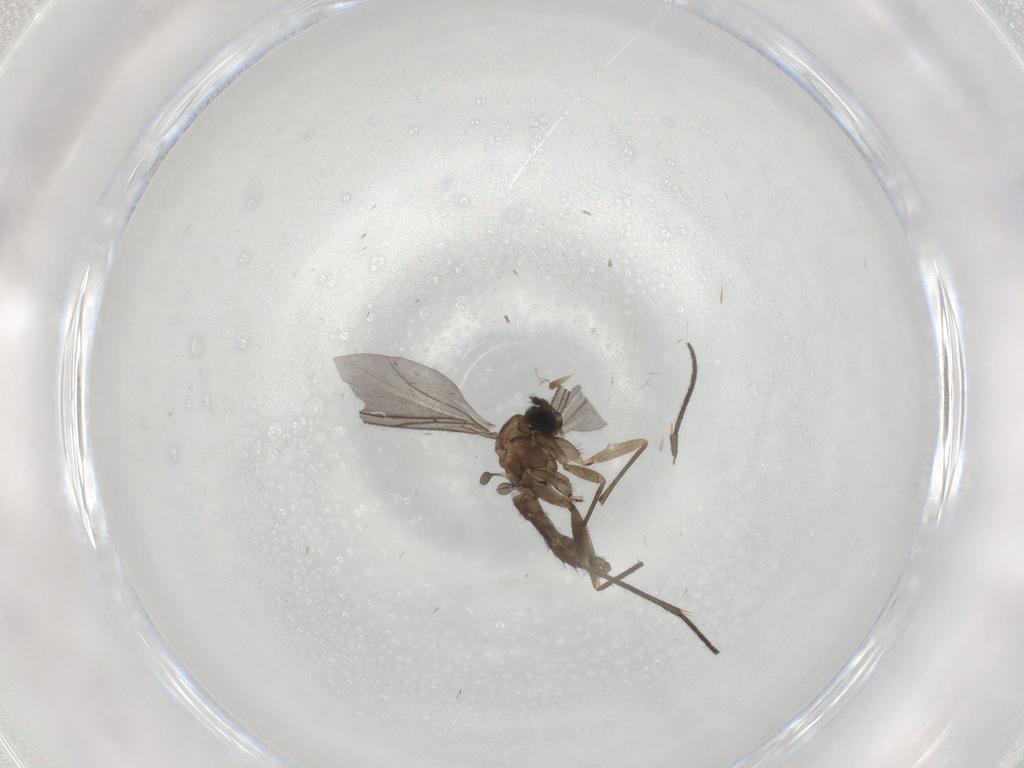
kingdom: Animalia
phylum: Arthropoda
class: Insecta
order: Diptera
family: Sciaridae
